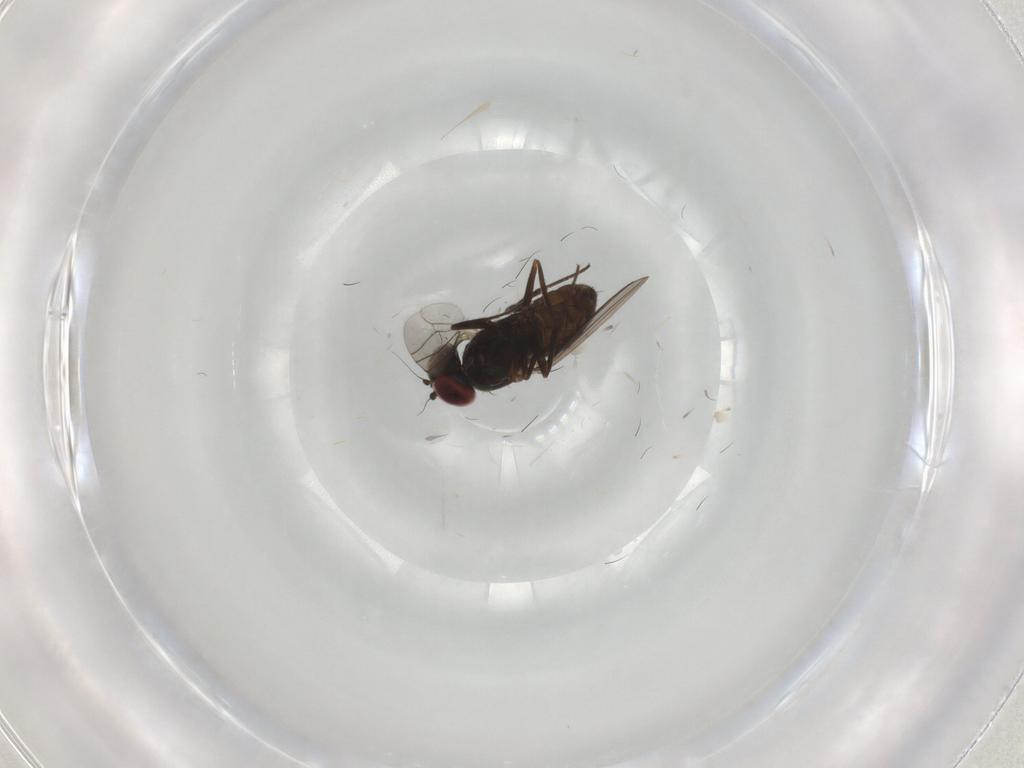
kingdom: Animalia
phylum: Arthropoda
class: Insecta
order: Diptera
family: Dolichopodidae
